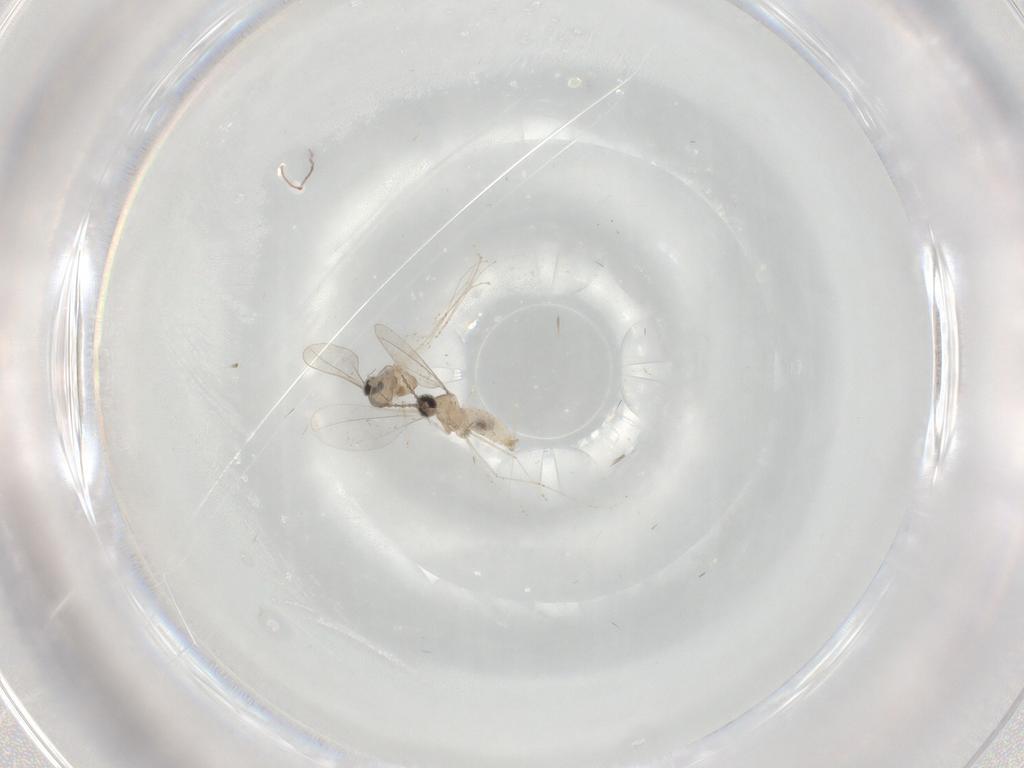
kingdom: Animalia
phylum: Arthropoda
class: Insecta
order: Diptera
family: Cecidomyiidae
